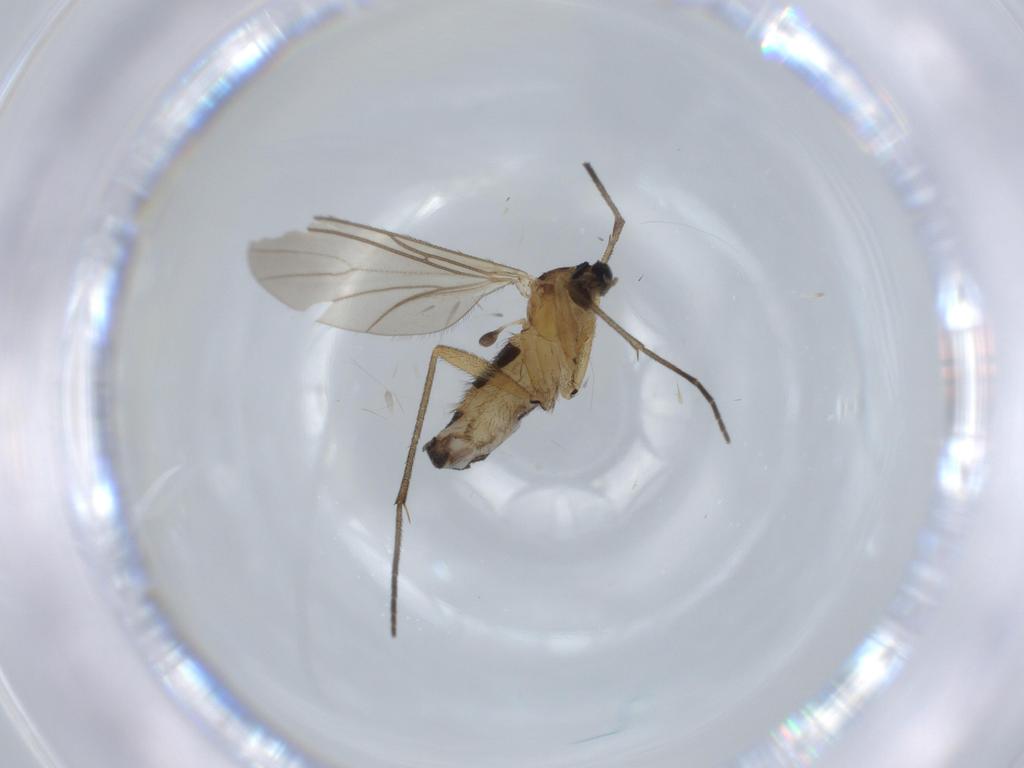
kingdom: Animalia
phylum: Arthropoda
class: Insecta
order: Diptera
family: Sciaridae
